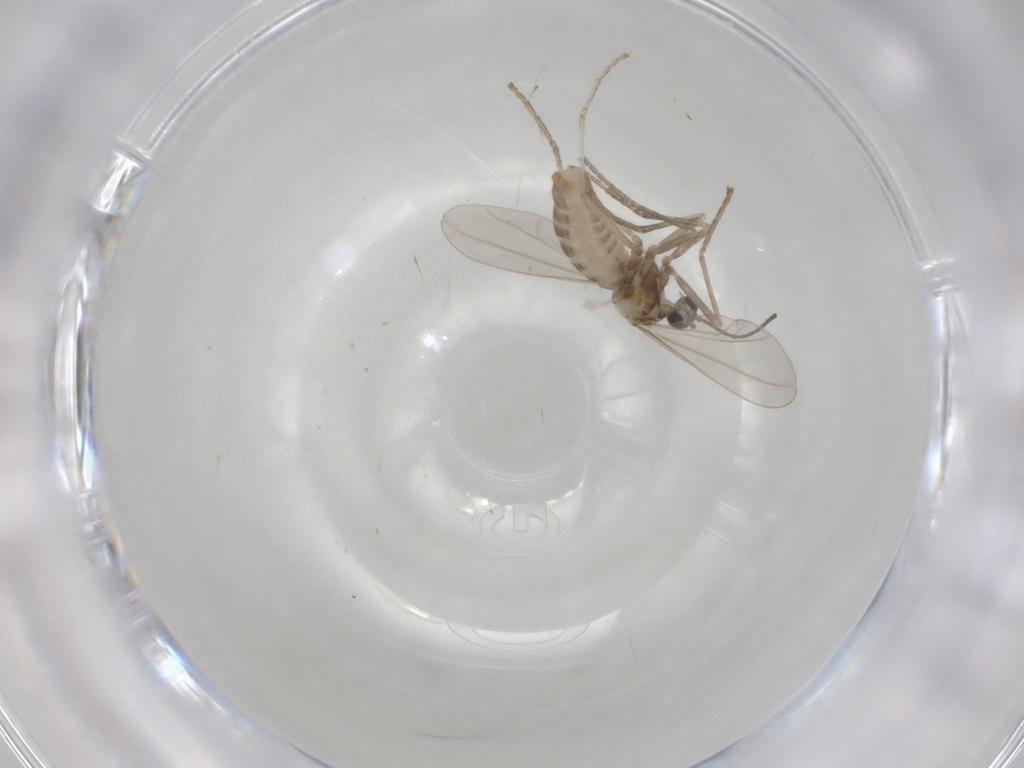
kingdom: Animalia
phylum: Arthropoda
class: Insecta
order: Diptera
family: Cecidomyiidae
